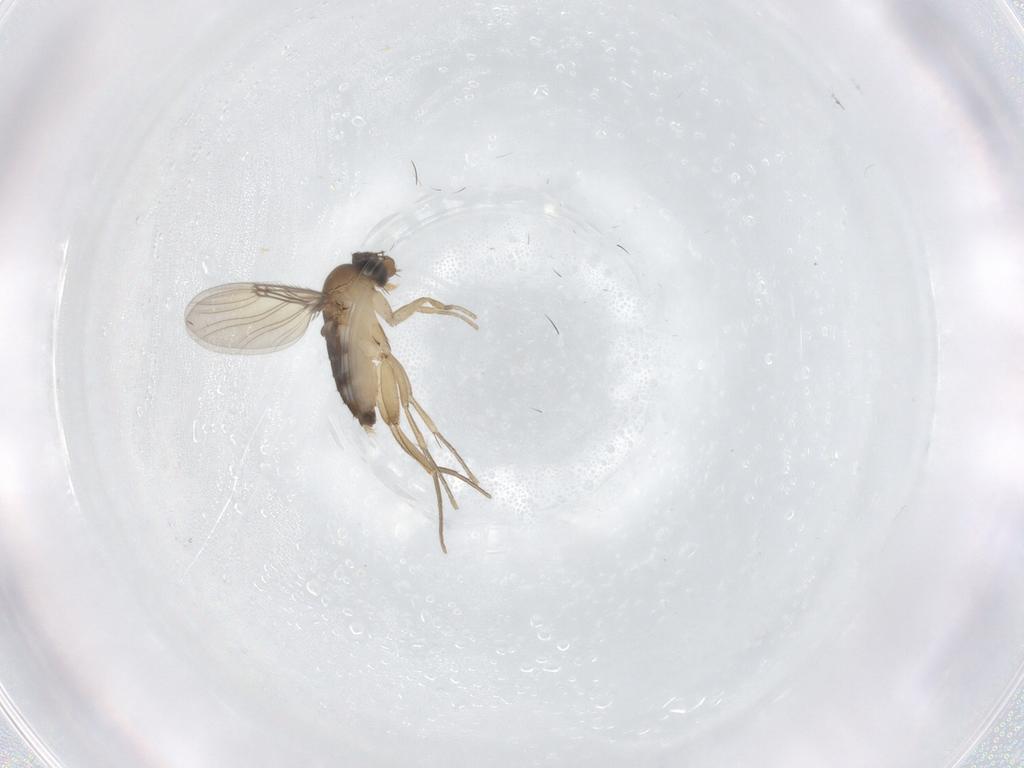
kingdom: Animalia
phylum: Arthropoda
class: Insecta
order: Diptera
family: Phoridae
